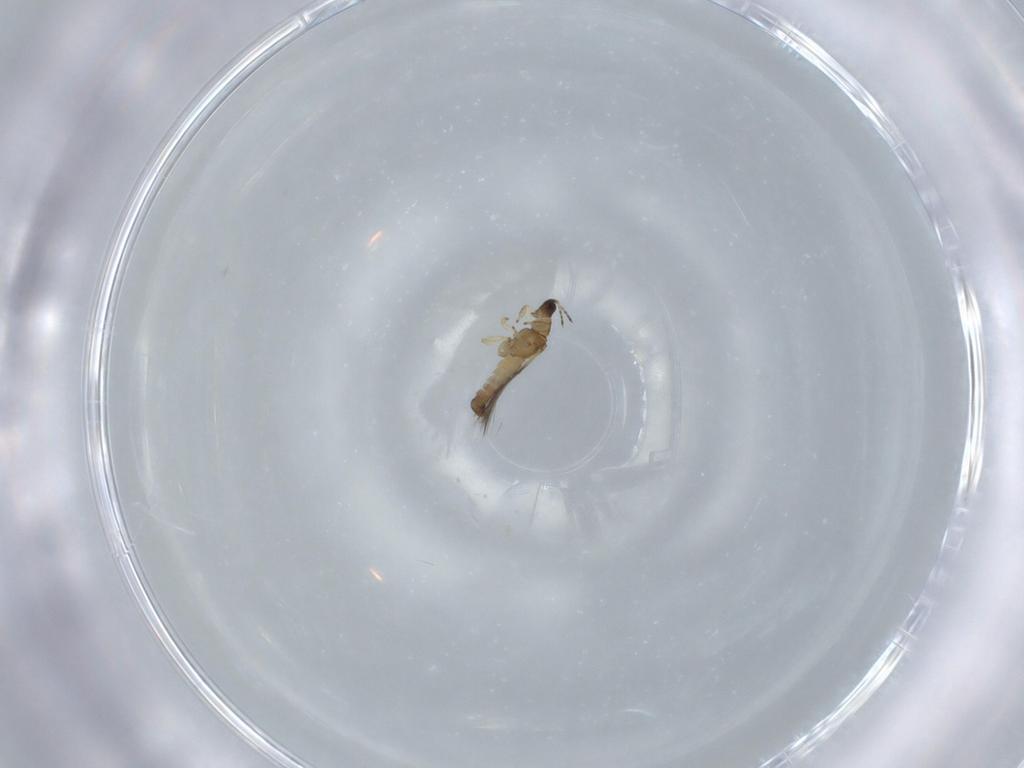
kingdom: Animalia
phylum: Arthropoda
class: Insecta
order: Thysanoptera
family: Thripidae
